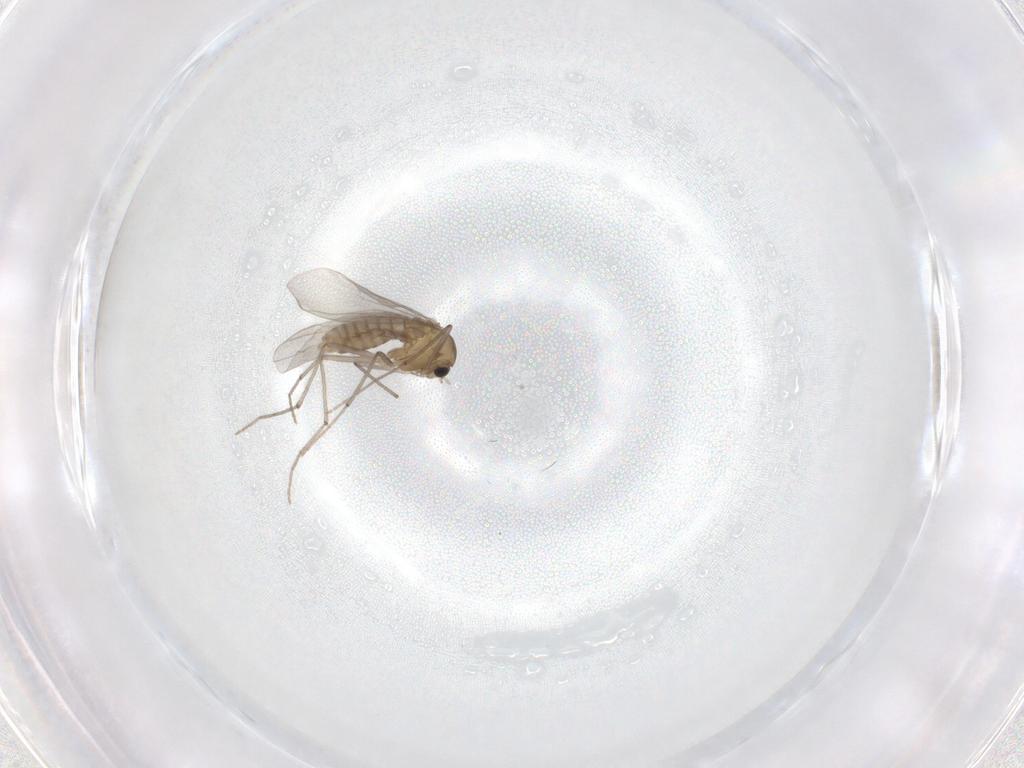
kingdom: Animalia
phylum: Arthropoda
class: Insecta
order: Diptera
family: Chironomidae
